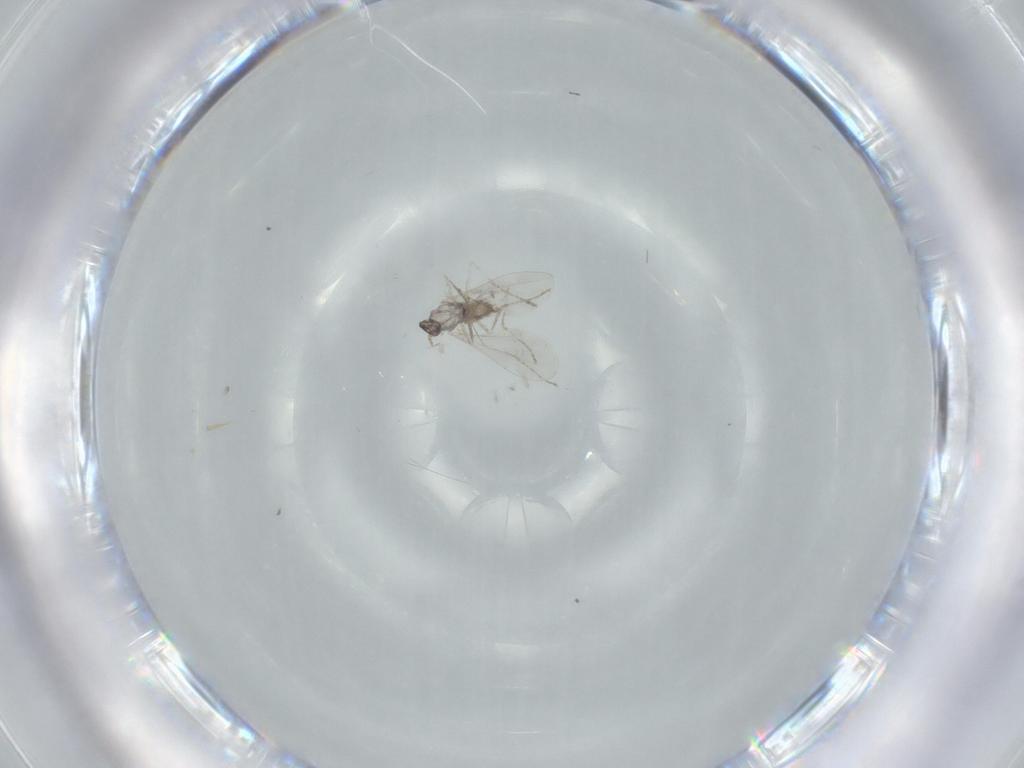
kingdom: Animalia
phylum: Arthropoda
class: Insecta
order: Diptera
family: Cecidomyiidae
